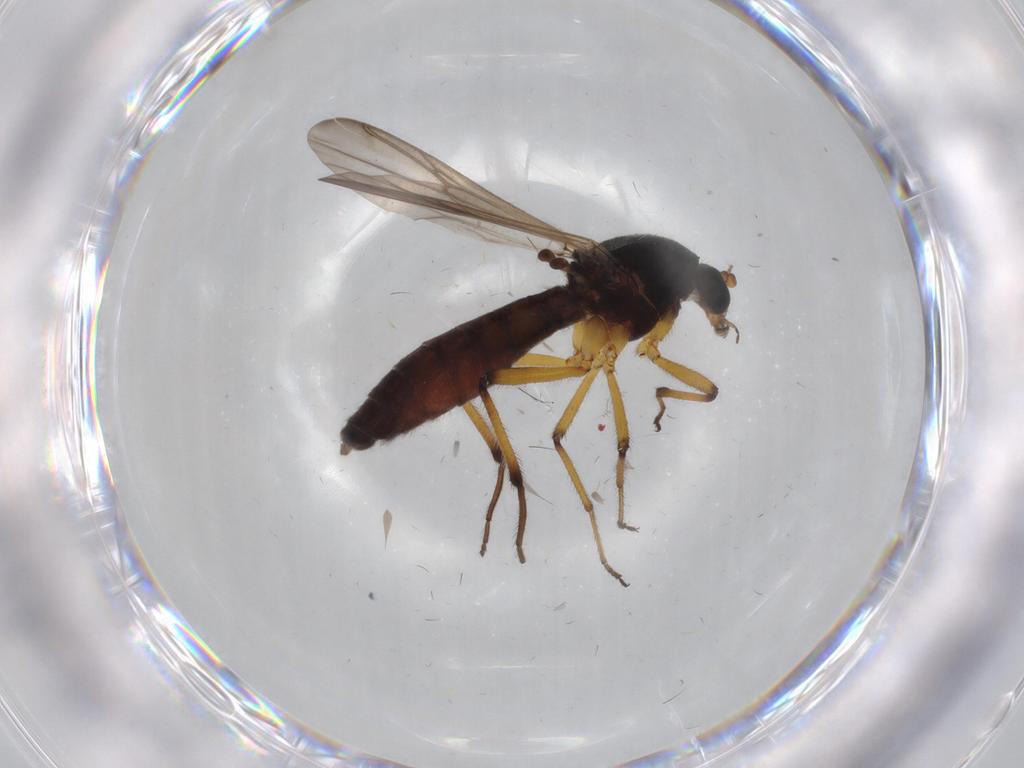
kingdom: Animalia
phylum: Arthropoda
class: Insecta
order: Diptera
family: Ceratopogonidae
